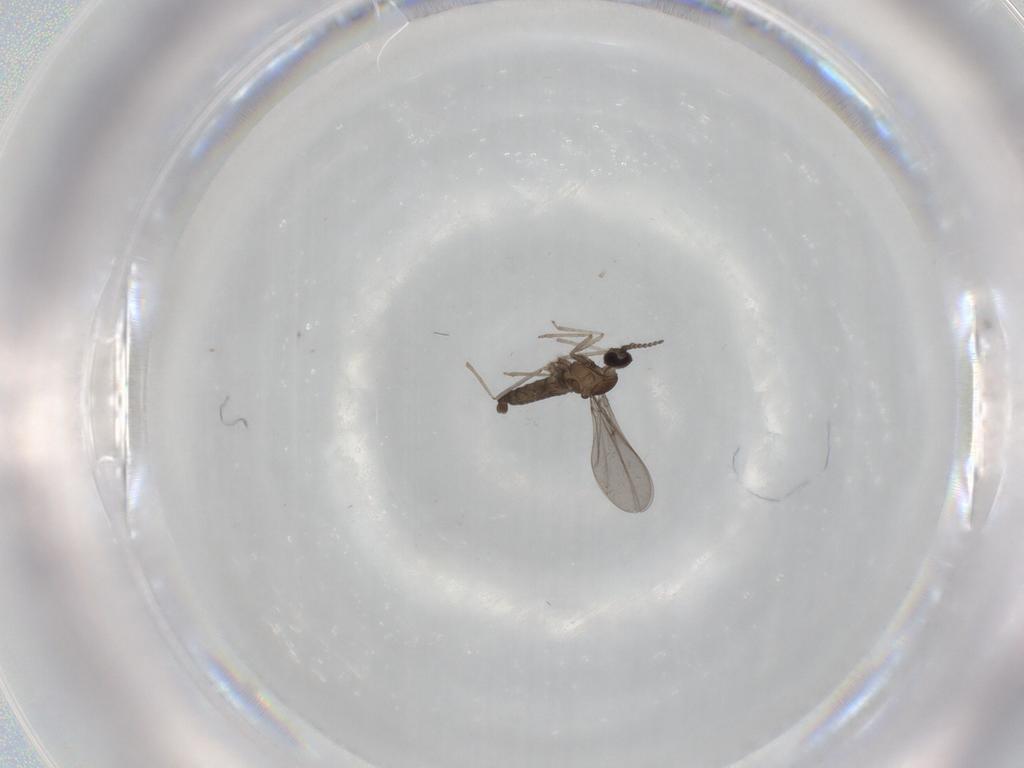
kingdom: Animalia
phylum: Arthropoda
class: Insecta
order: Diptera
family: Cecidomyiidae
